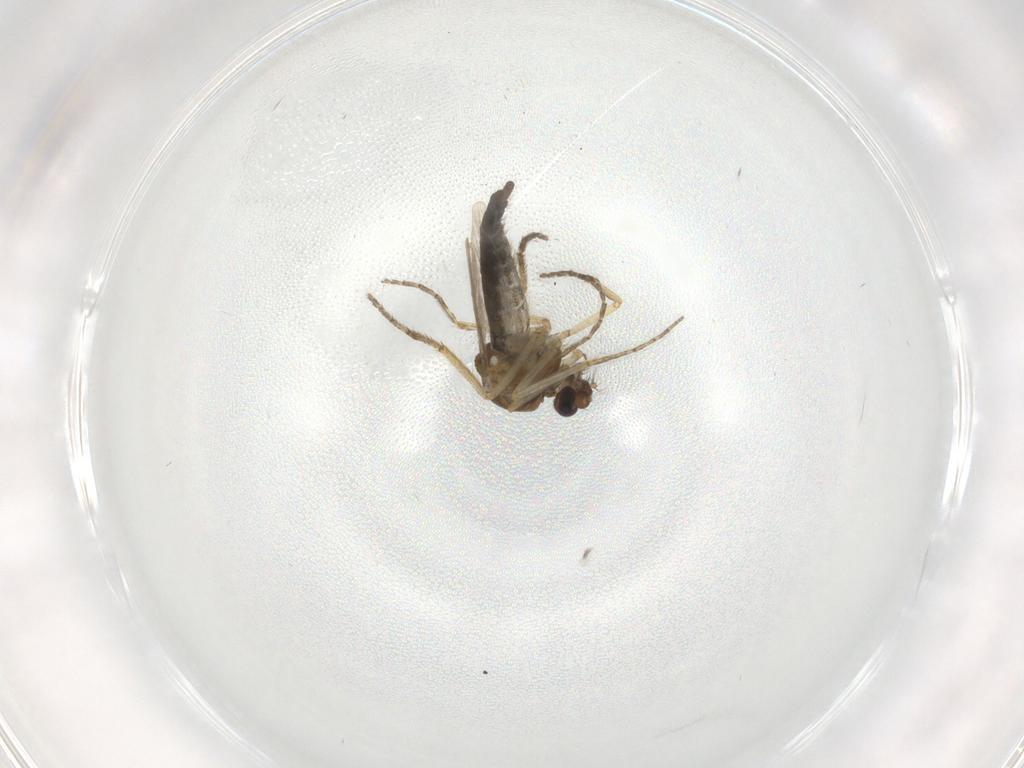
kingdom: Animalia
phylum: Arthropoda
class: Insecta
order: Diptera
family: Ceratopogonidae
